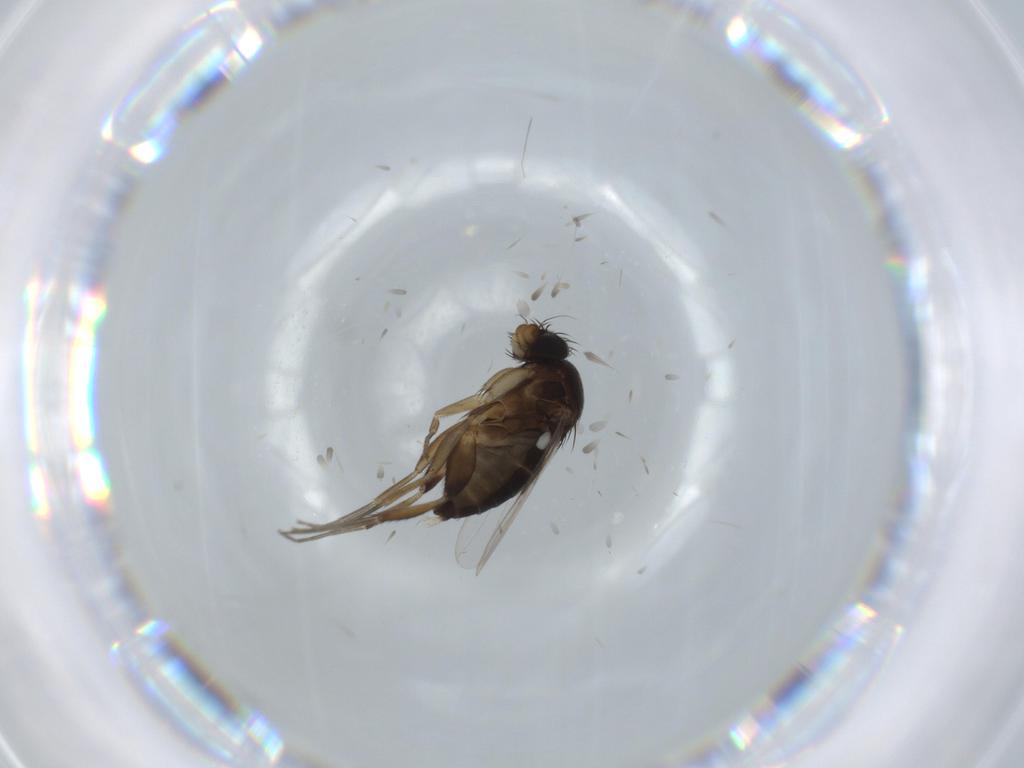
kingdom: Animalia
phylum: Arthropoda
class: Insecta
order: Diptera
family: Phoridae
